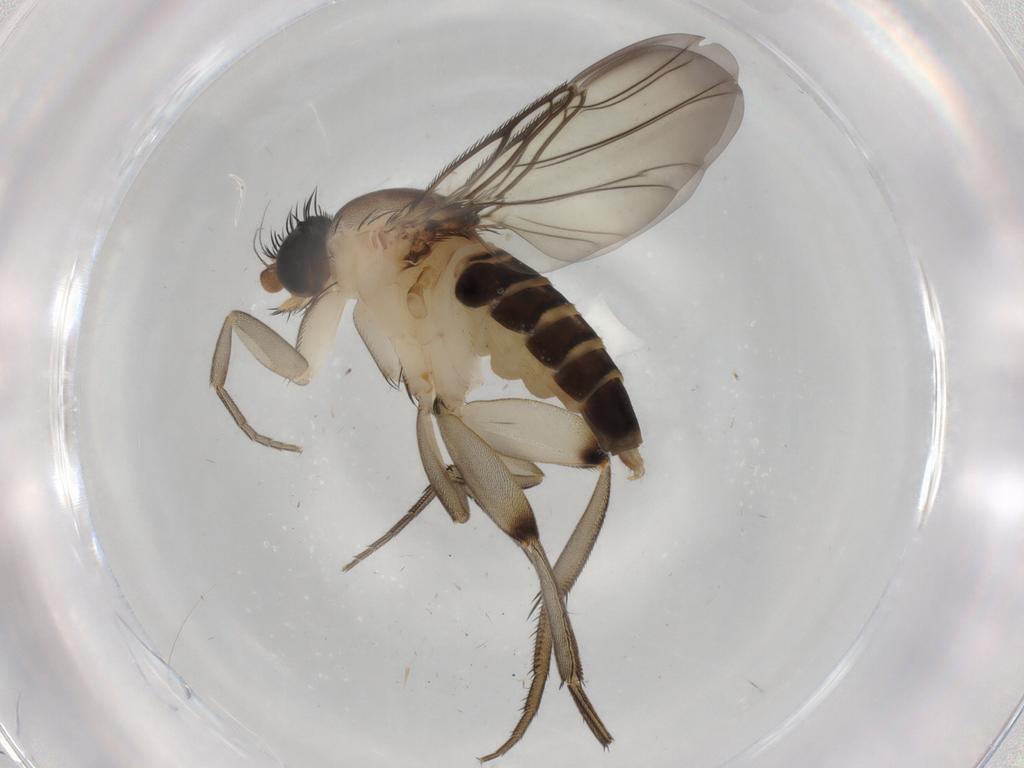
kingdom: Animalia
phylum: Arthropoda
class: Insecta
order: Diptera
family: Phoridae
